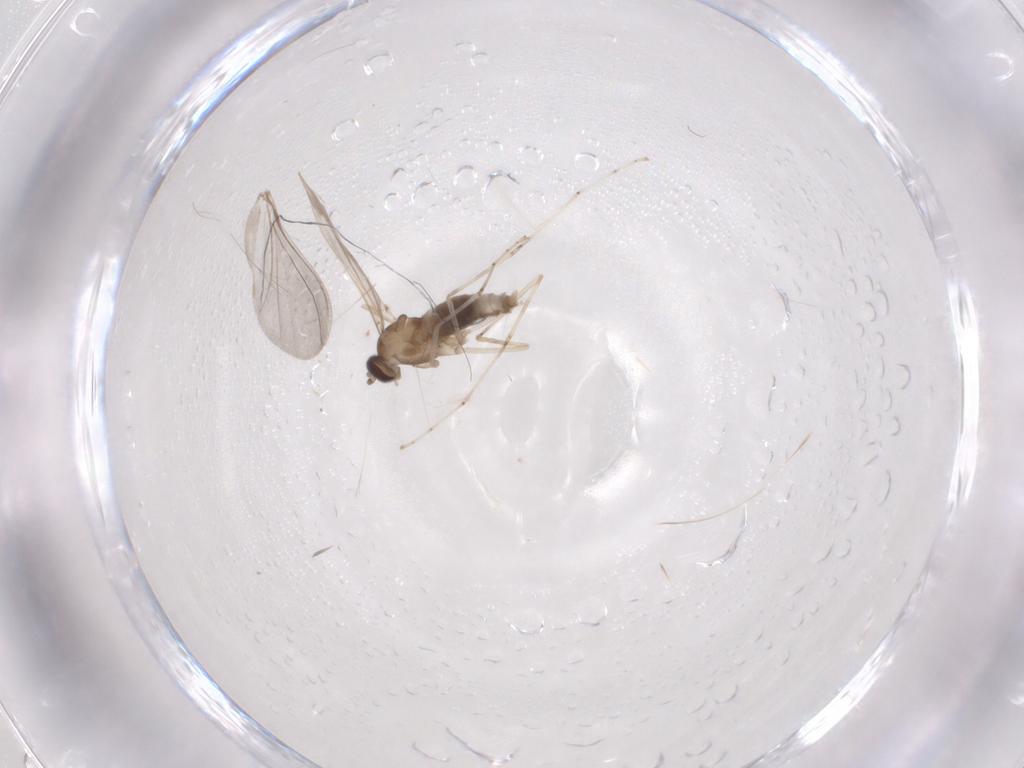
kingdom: Animalia
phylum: Arthropoda
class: Insecta
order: Diptera
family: Cecidomyiidae
